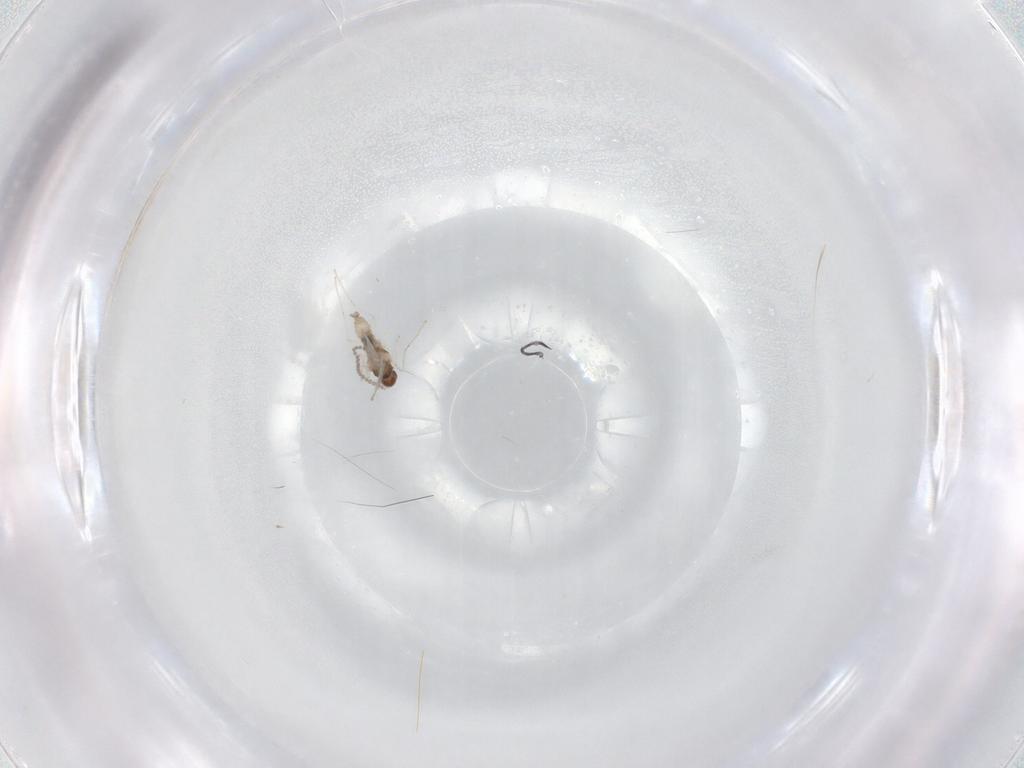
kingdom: Animalia
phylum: Arthropoda
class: Insecta
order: Diptera
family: Cecidomyiidae
